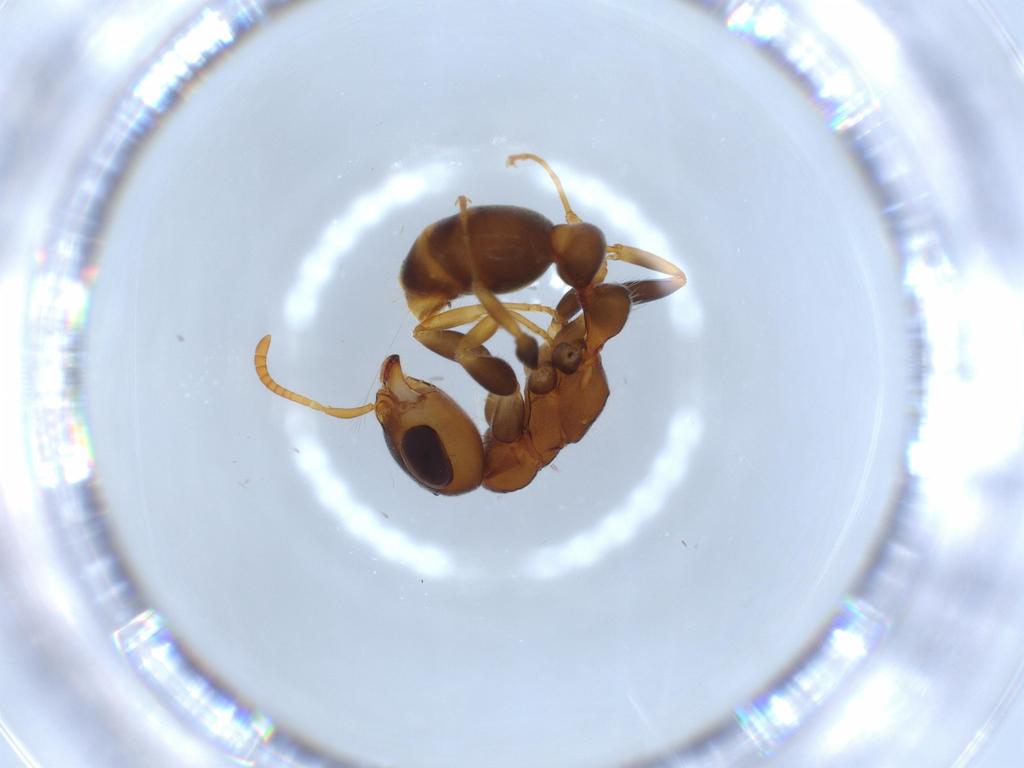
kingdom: Animalia
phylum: Arthropoda
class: Insecta
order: Hymenoptera
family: Formicidae
